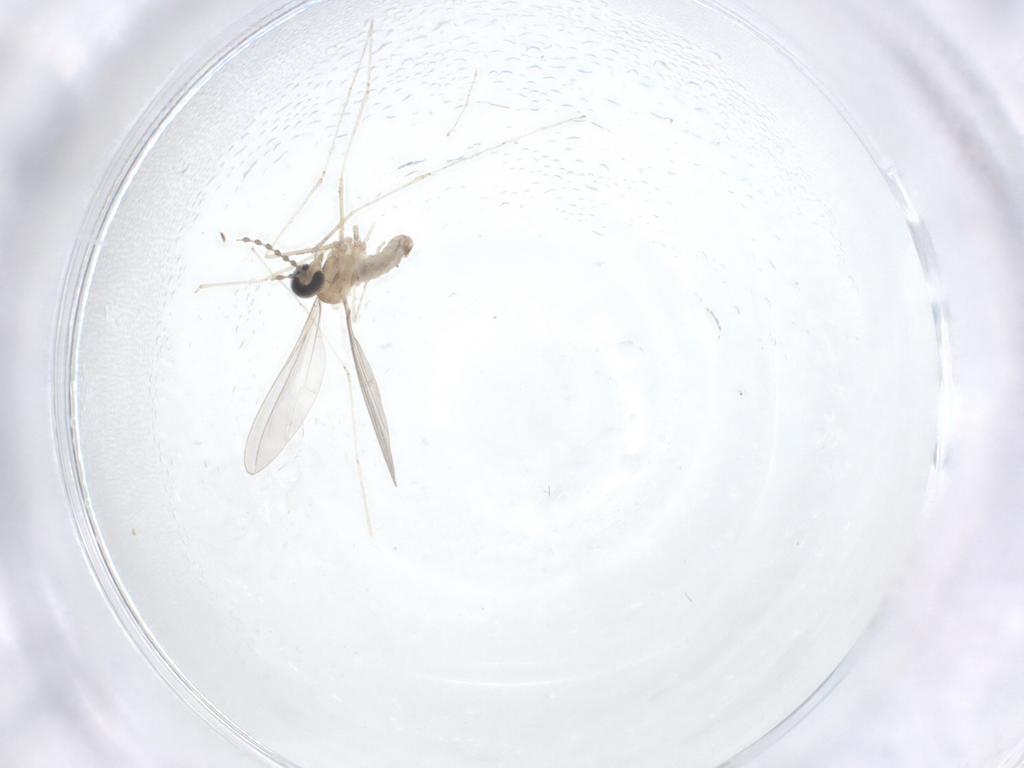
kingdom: Animalia
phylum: Arthropoda
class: Insecta
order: Diptera
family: Cecidomyiidae
